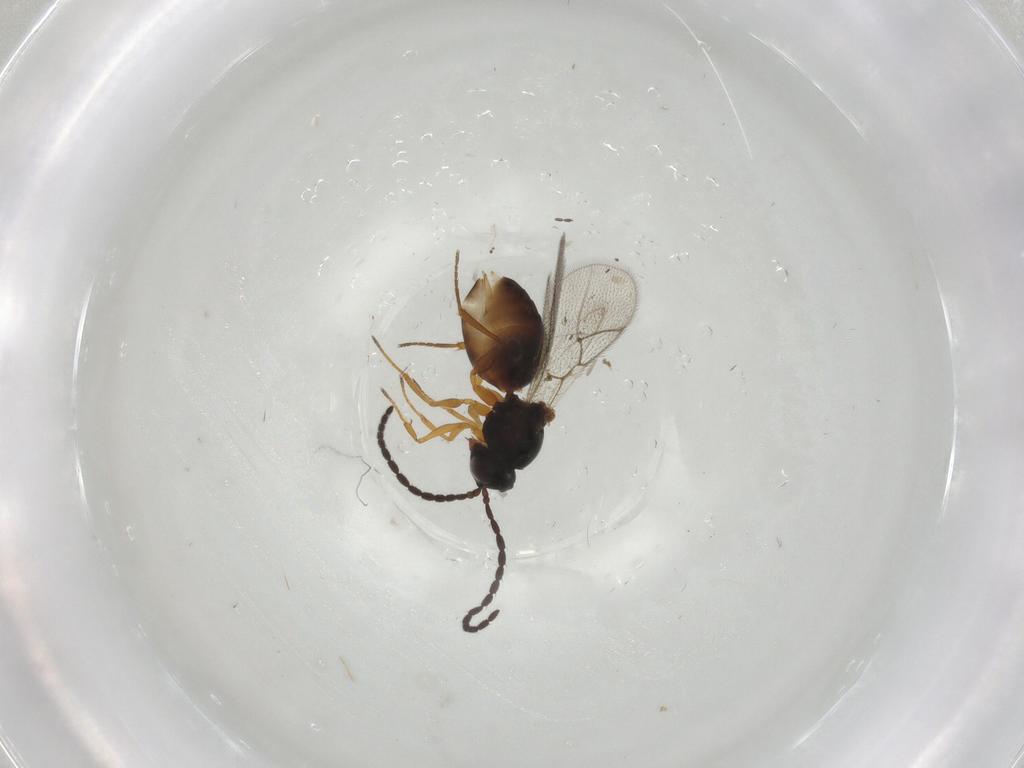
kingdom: Animalia
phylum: Arthropoda
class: Insecta
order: Hymenoptera
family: Figitidae
